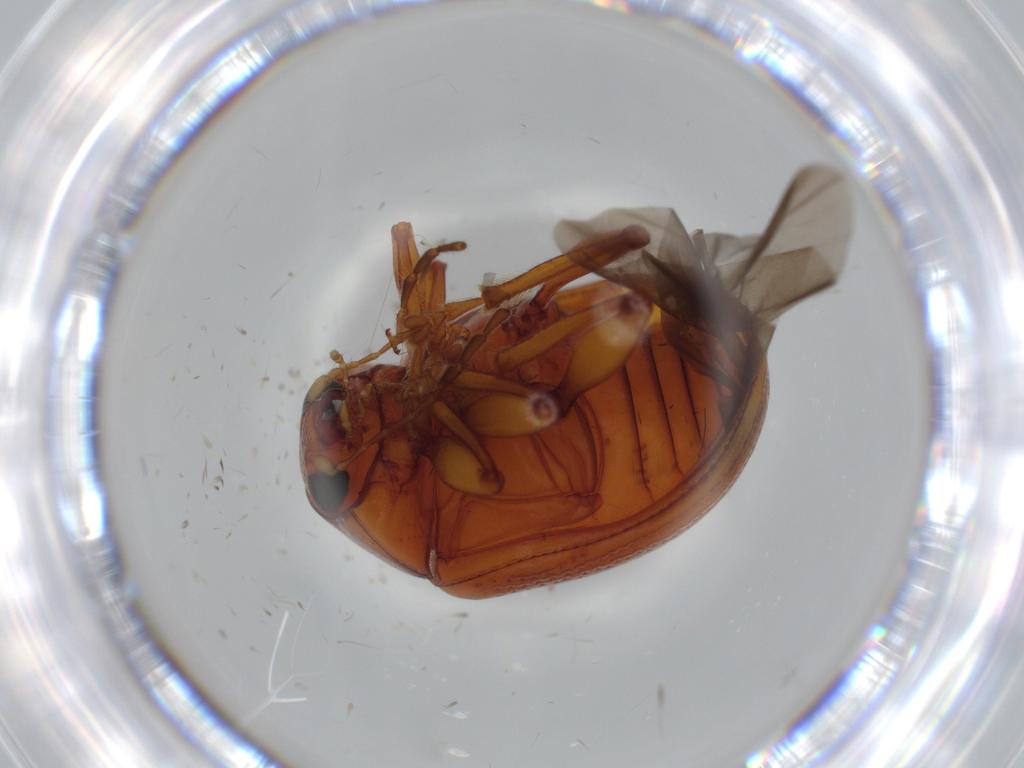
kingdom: Animalia
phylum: Arthropoda
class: Insecta
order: Coleoptera
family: Chrysomelidae
